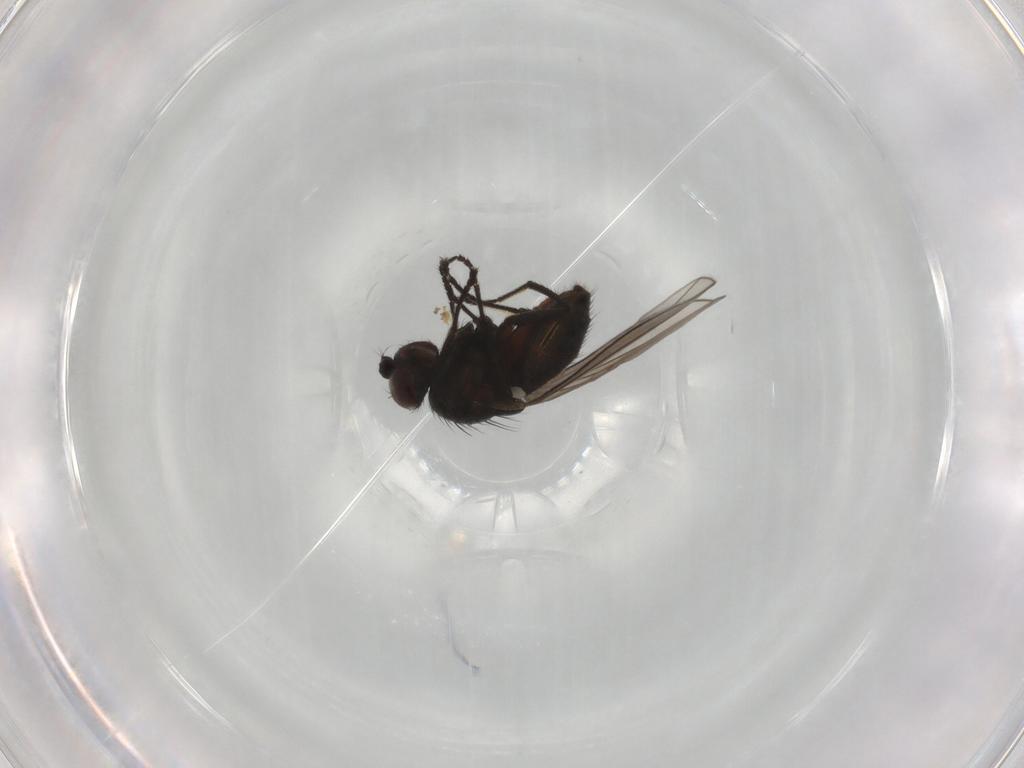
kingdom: Animalia
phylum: Arthropoda
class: Insecta
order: Diptera
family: Ephydridae
